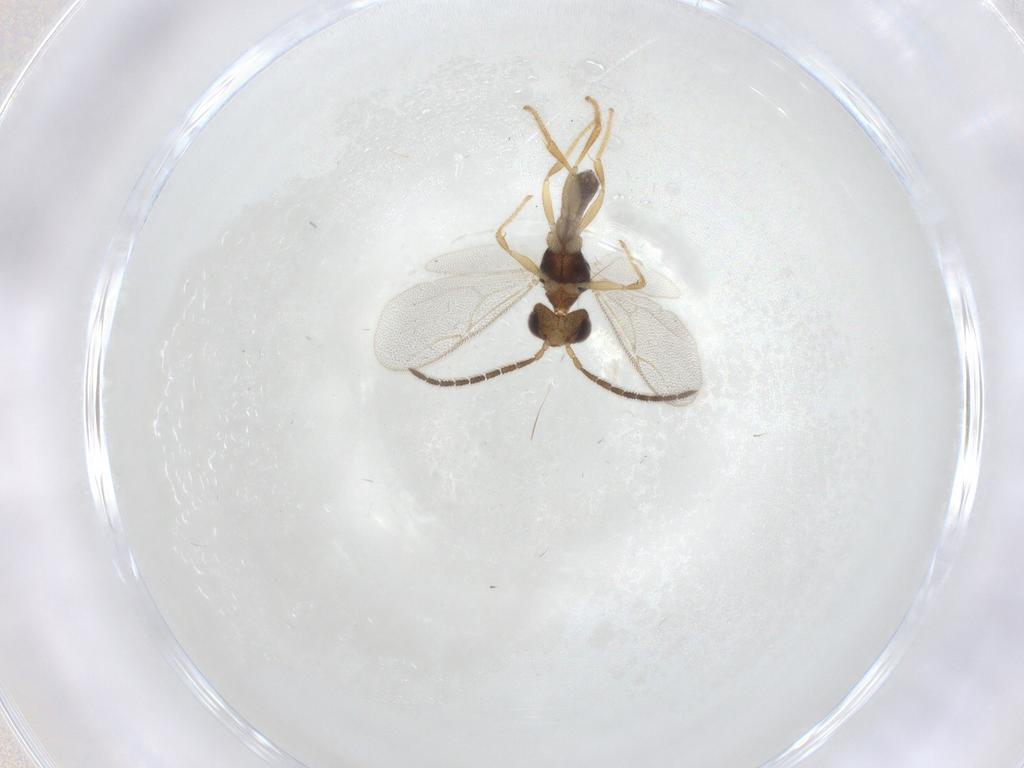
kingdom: Animalia
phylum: Arthropoda
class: Insecta
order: Hymenoptera
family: Dryinidae
